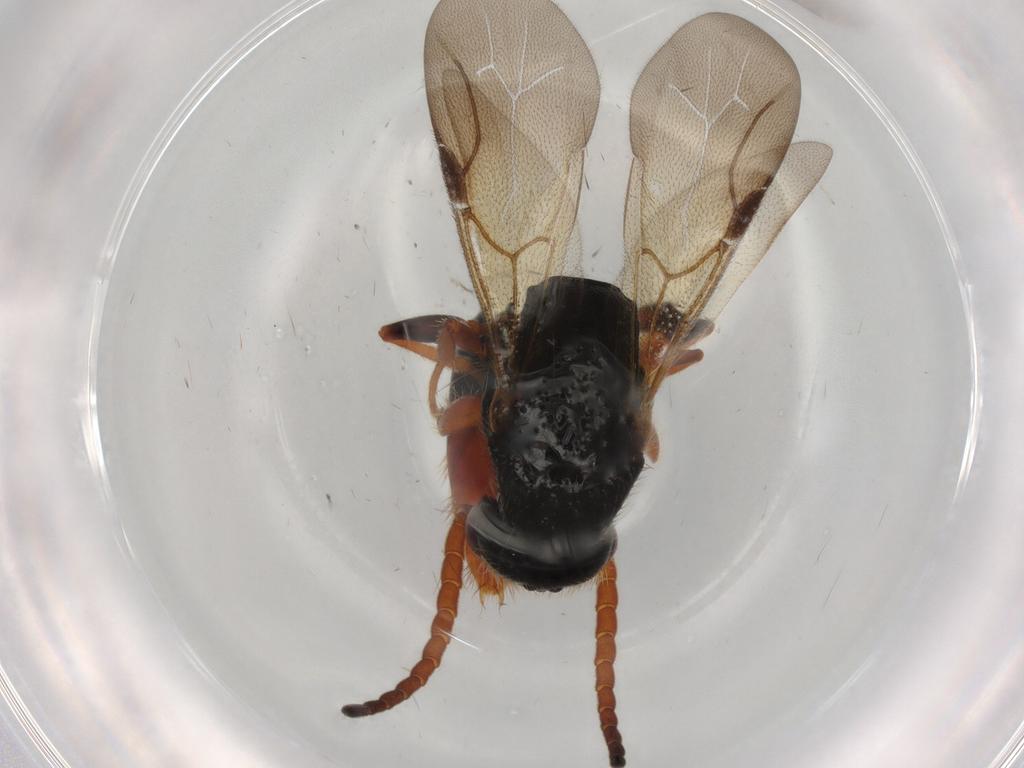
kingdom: Animalia
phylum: Arthropoda
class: Insecta
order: Hymenoptera
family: Bethylidae
